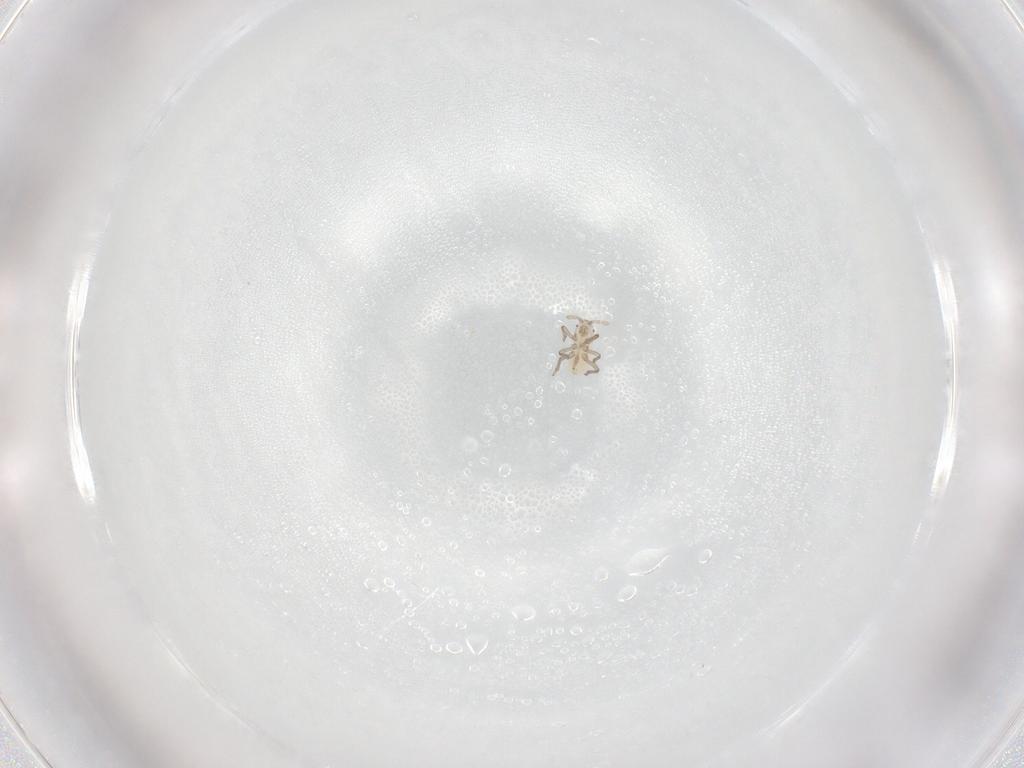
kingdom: Animalia
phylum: Arthropoda
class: Insecta
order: Hemiptera
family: Aphididae
